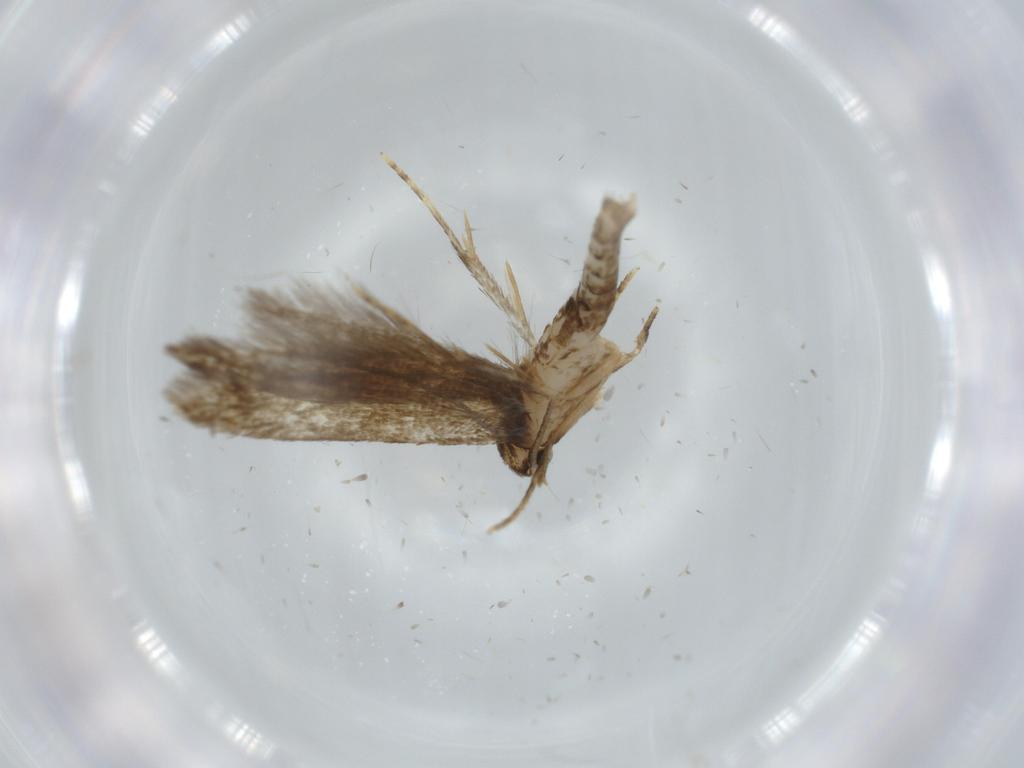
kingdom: Animalia
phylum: Arthropoda
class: Insecta
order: Lepidoptera
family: Tineidae
